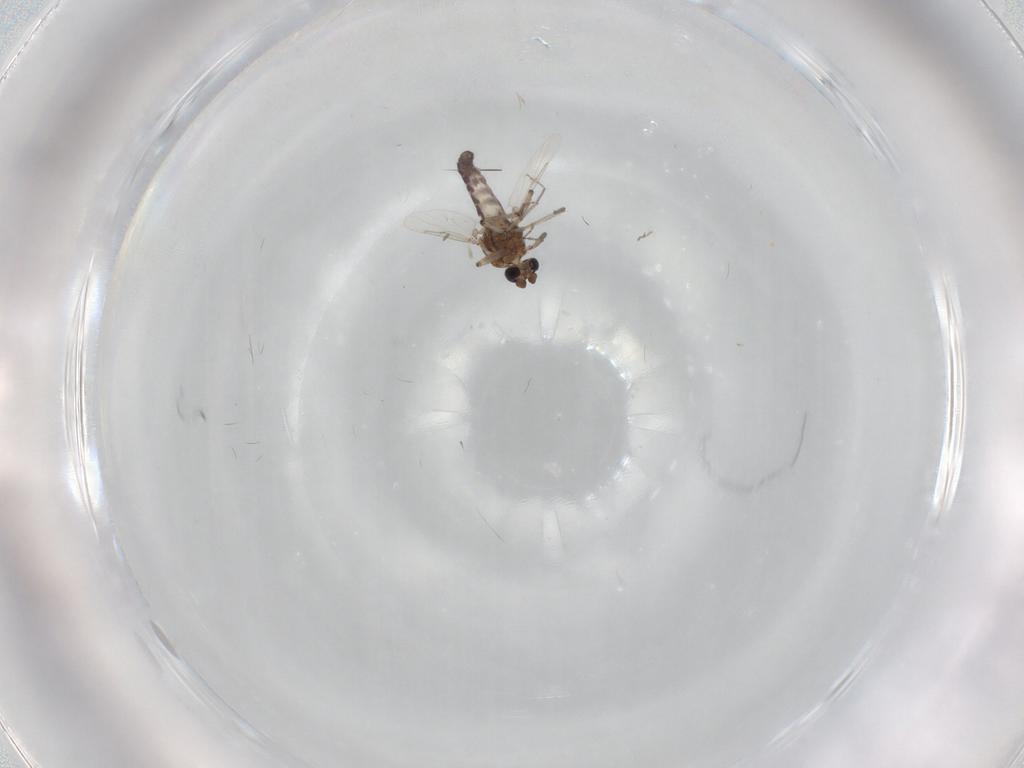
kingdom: Animalia
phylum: Arthropoda
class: Insecta
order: Diptera
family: Ceratopogonidae
